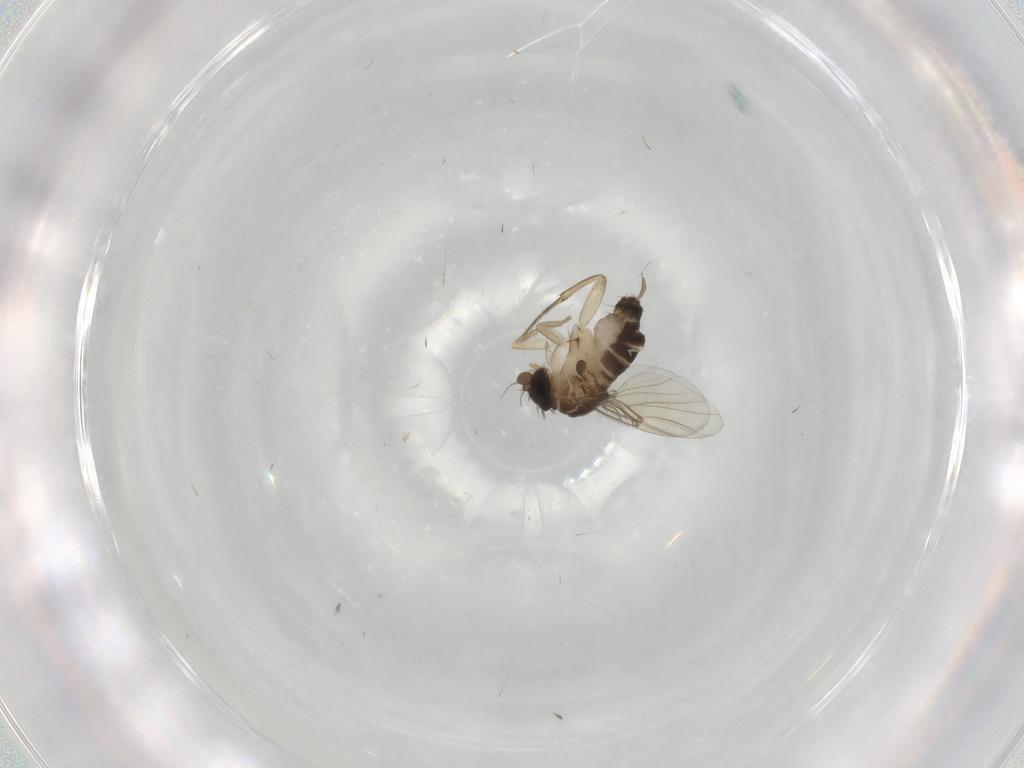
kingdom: Animalia
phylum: Arthropoda
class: Insecta
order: Diptera
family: Phoridae
